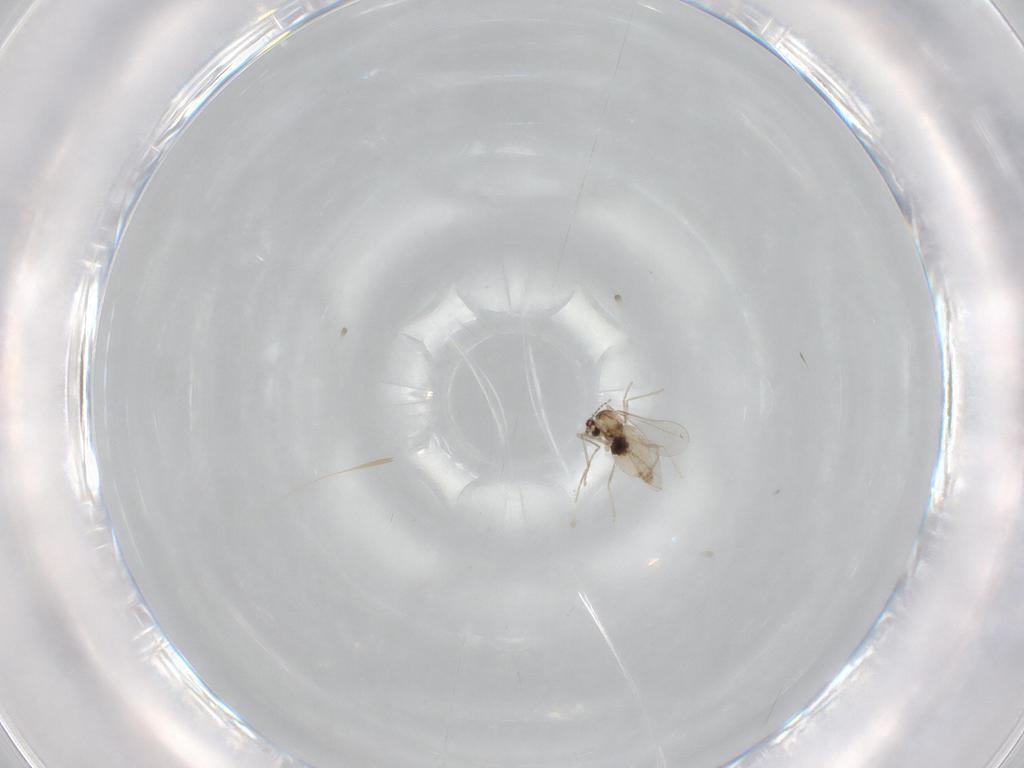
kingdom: Animalia
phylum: Arthropoda
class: Insecta
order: Diptera
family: Cecidomyiidae
